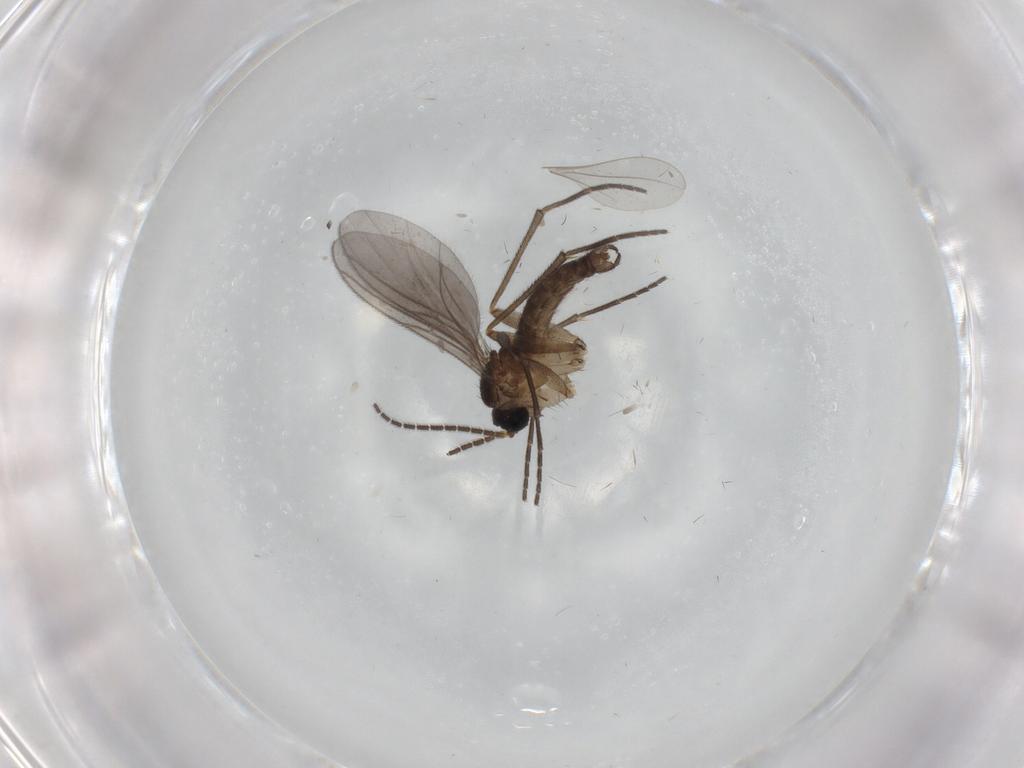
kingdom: Animalia
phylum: Arthropoda
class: Insecta
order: Diptera
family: Sciaridae
